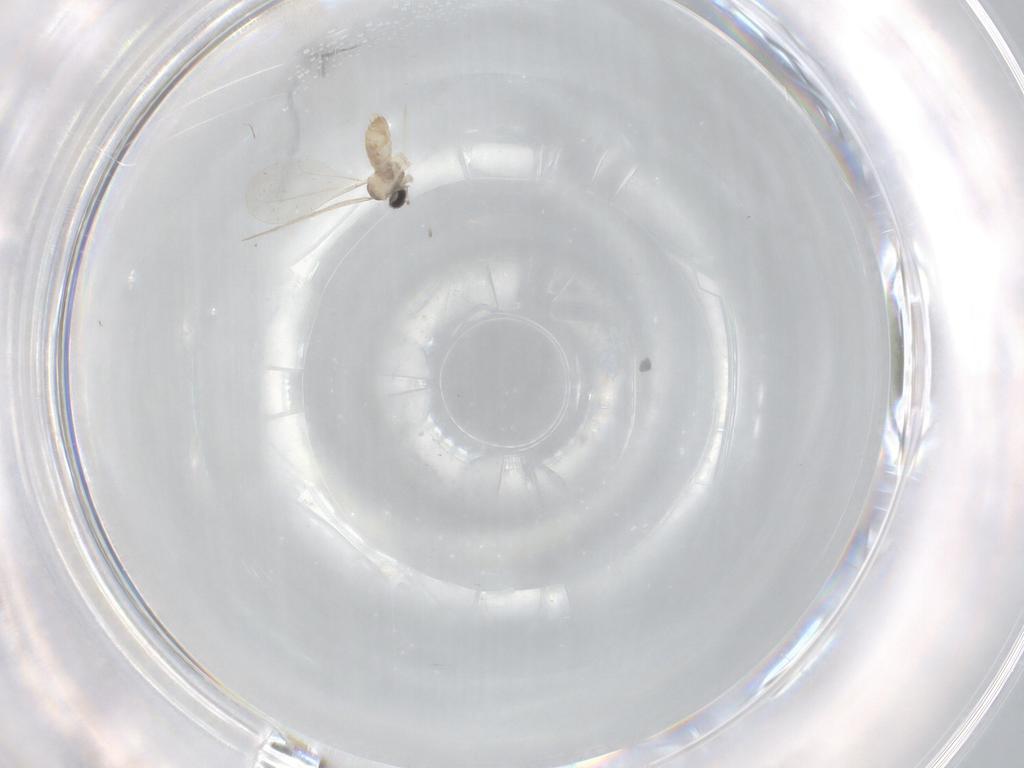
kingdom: Animalia
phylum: Arthropoda
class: Insecta
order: Diptera
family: Cecidomyiidae
